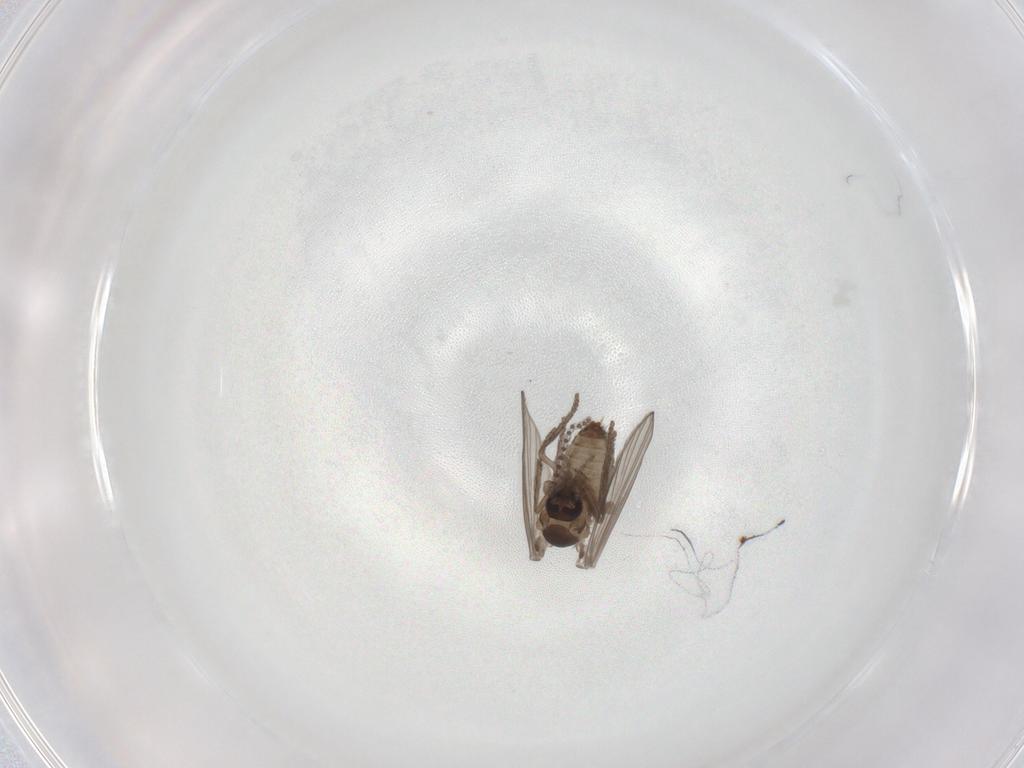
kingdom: Animalia
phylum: Arthropoda
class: Insecta
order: Diptera
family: Psychodidae
